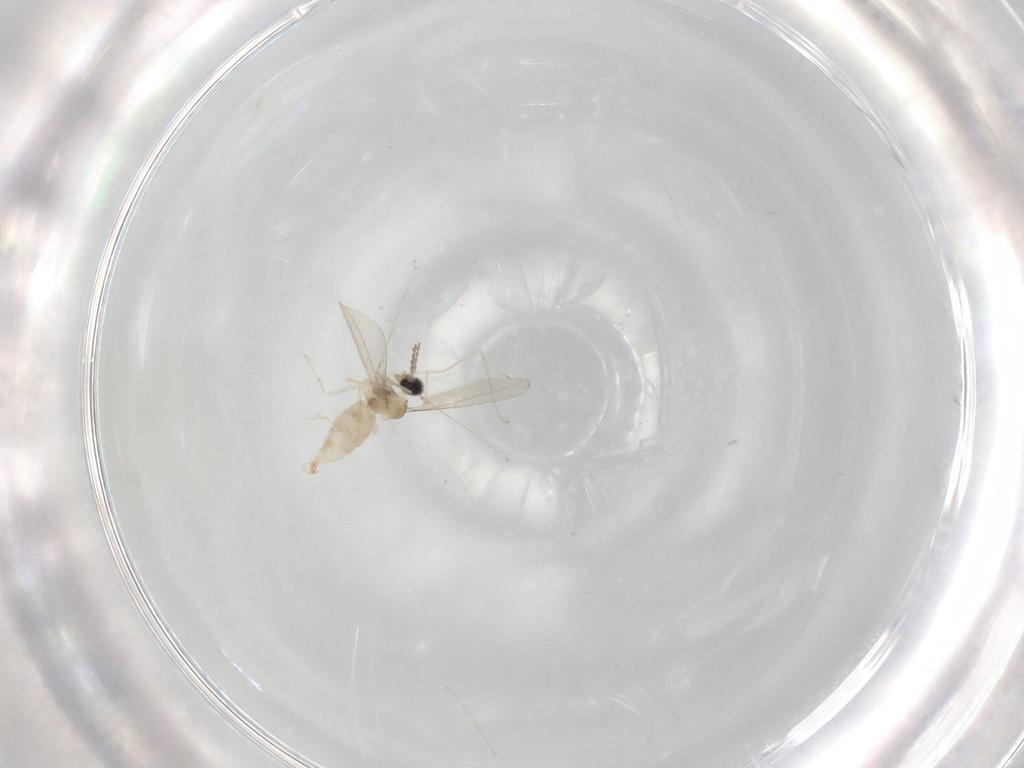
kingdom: Animalia
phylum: Arthropoda
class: Insecta
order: Diptera
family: Cecidomyiidae
